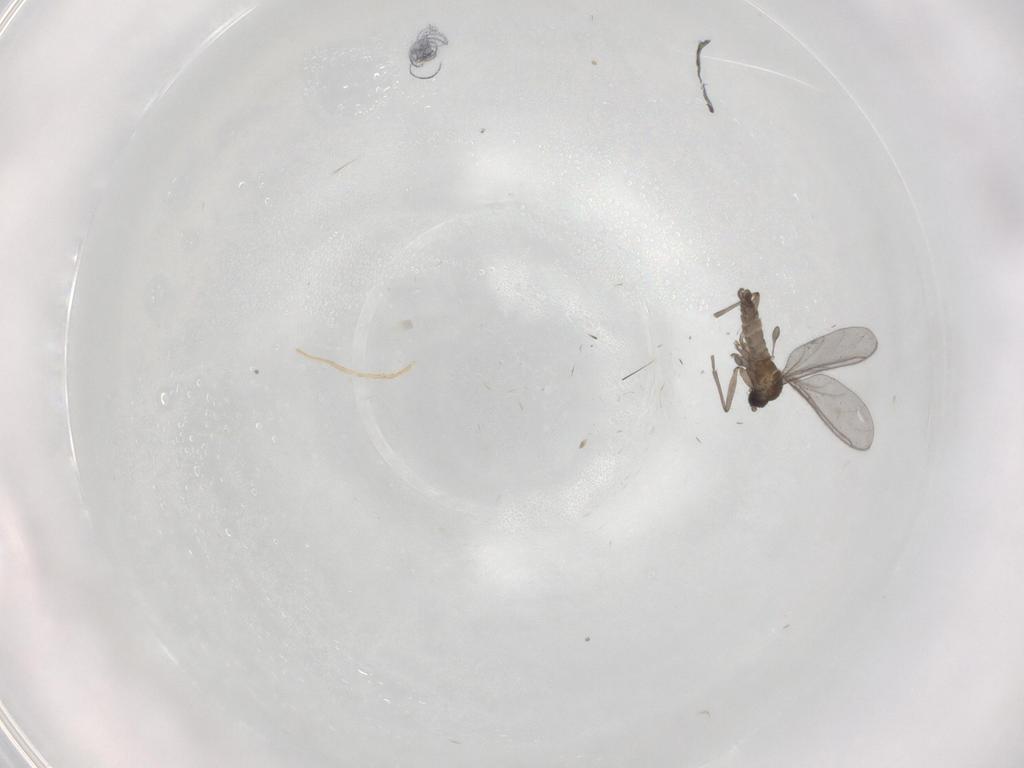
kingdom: Animalia
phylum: Arthropoda
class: Insecta
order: Diptera
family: Sciaridae
